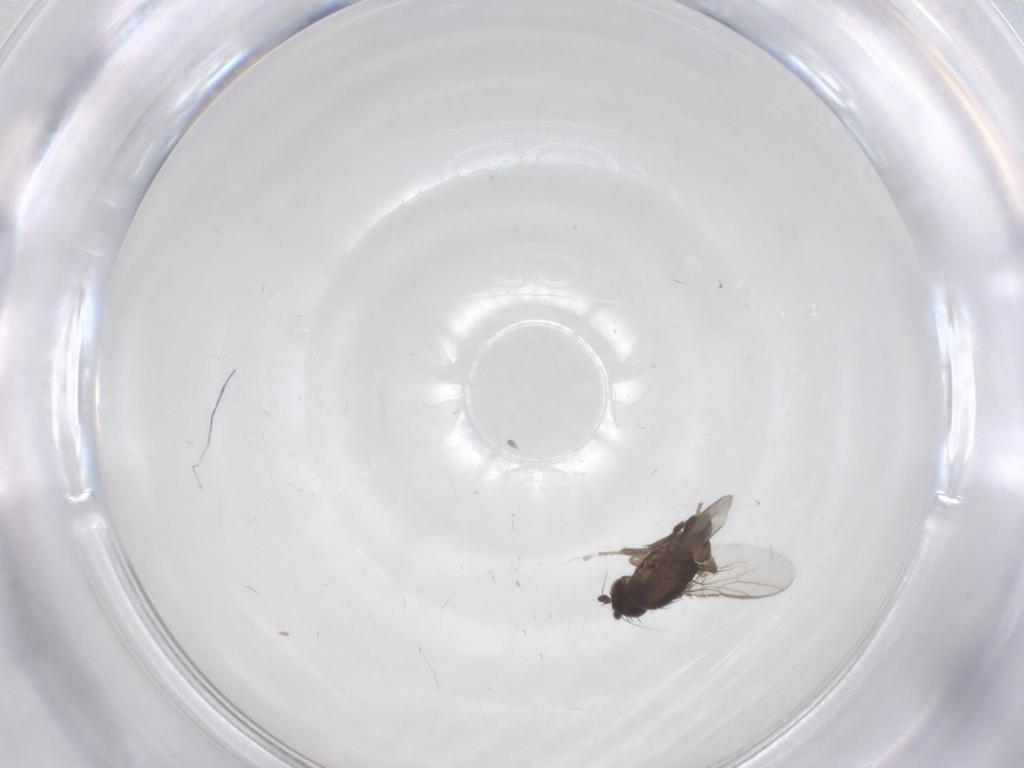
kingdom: Animalia
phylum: Arthropoda
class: Insecta
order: Diptera
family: Sphaeroceridae
